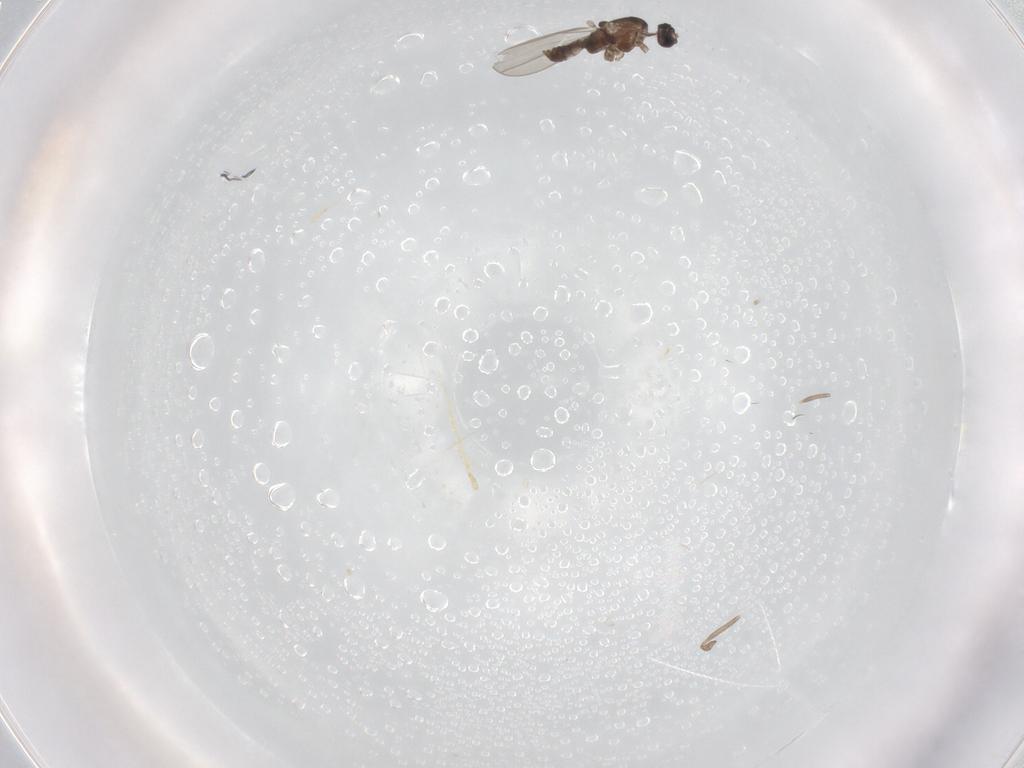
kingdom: Animalia
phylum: Arthropoda
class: Insecta
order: Diptera
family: Cecidomyiidae
